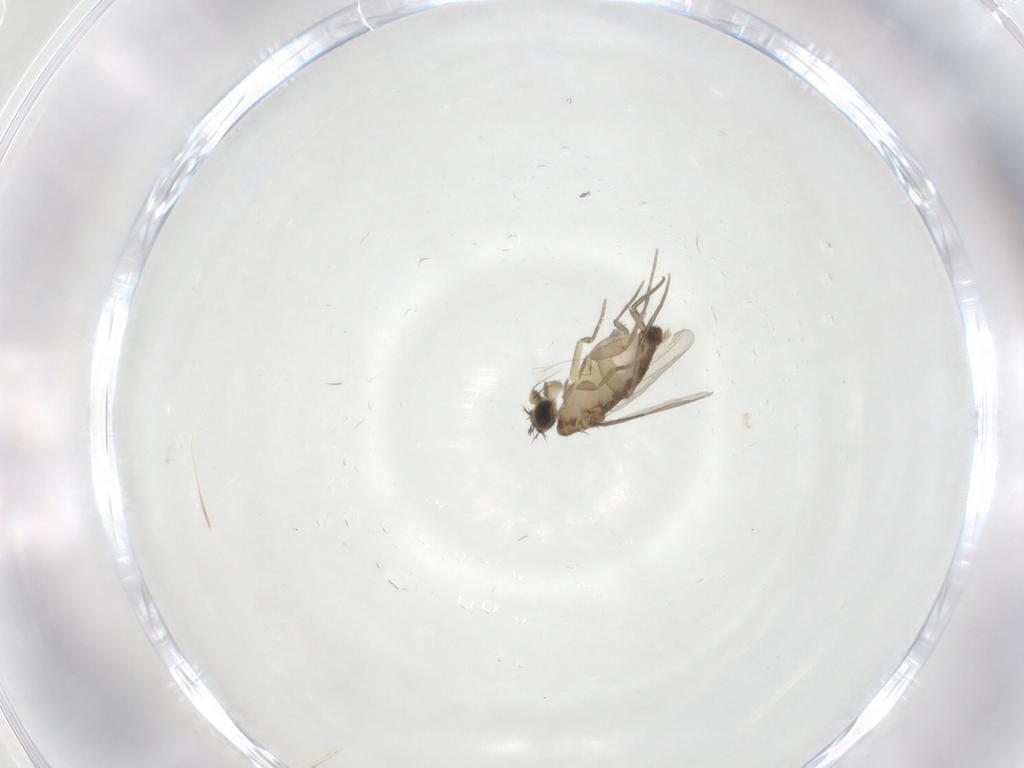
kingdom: Animalia
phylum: Arthropoda
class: Insecta
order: Diptera
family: Phoridae
